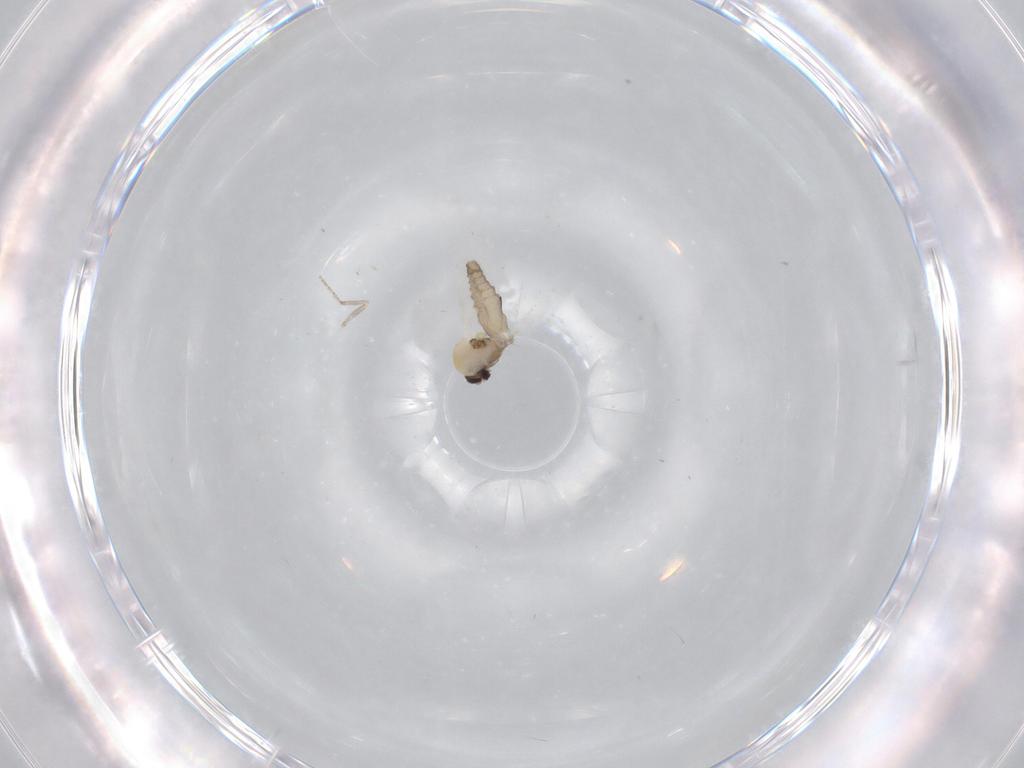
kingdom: Animalia
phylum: Arthropoda
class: Insecta
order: Diptera
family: Ceratopogonidae
